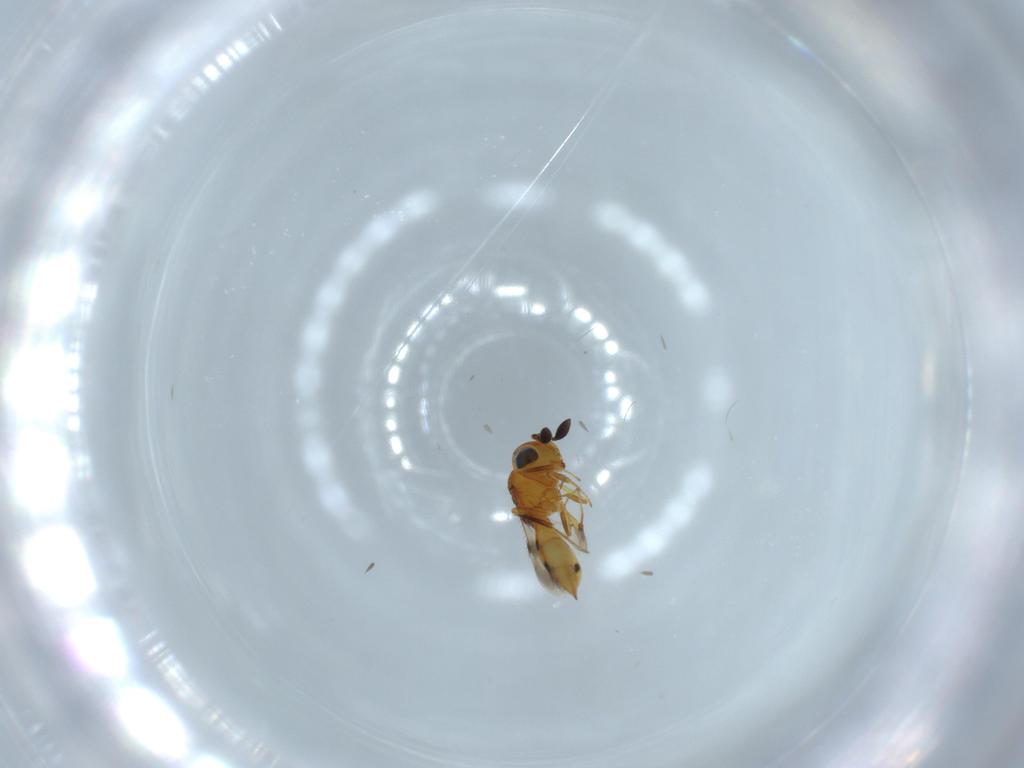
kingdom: Animalia
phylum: Arthropoda
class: Insecta
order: Hymenoptera
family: Scelionidae
